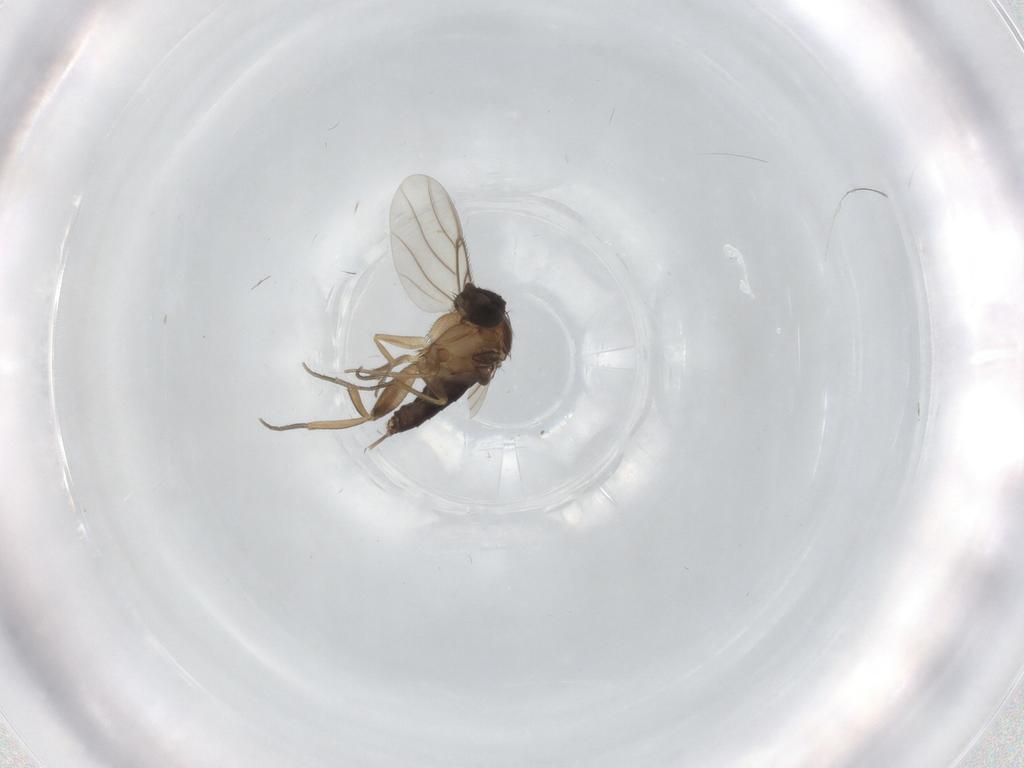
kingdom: Animalia
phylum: Arthropoda
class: Insecta
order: Diptera
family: Phoridae
